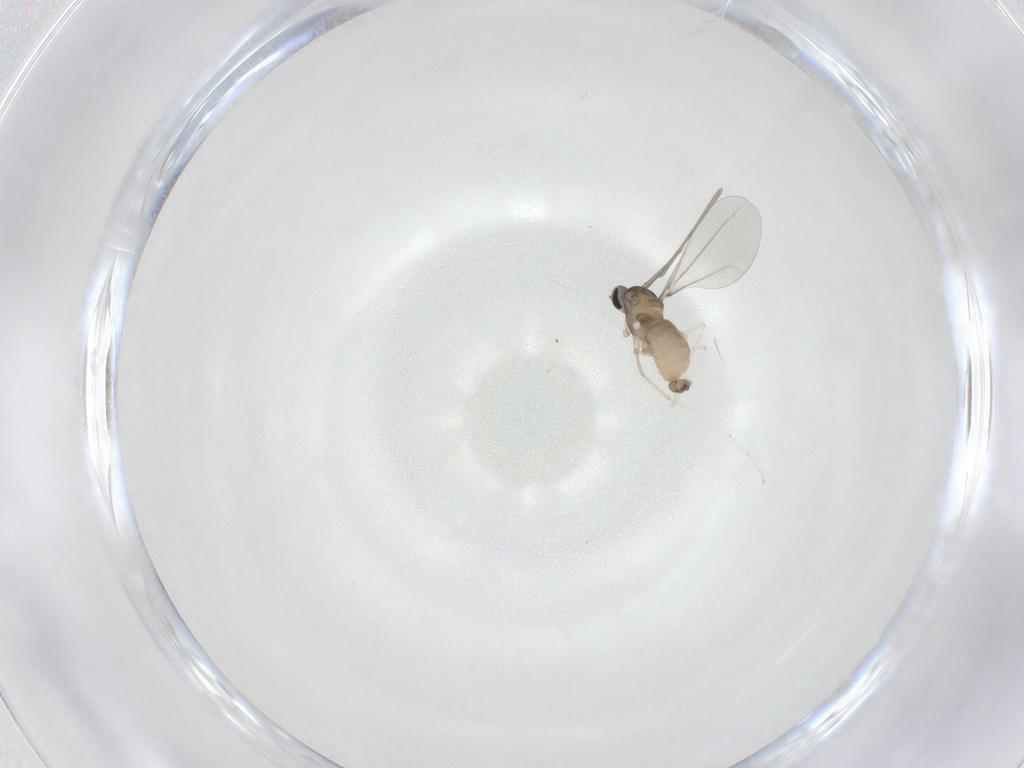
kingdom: Animalia
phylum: Arthropoda
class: Insecta
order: Diptera
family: Cecidomyiidae
